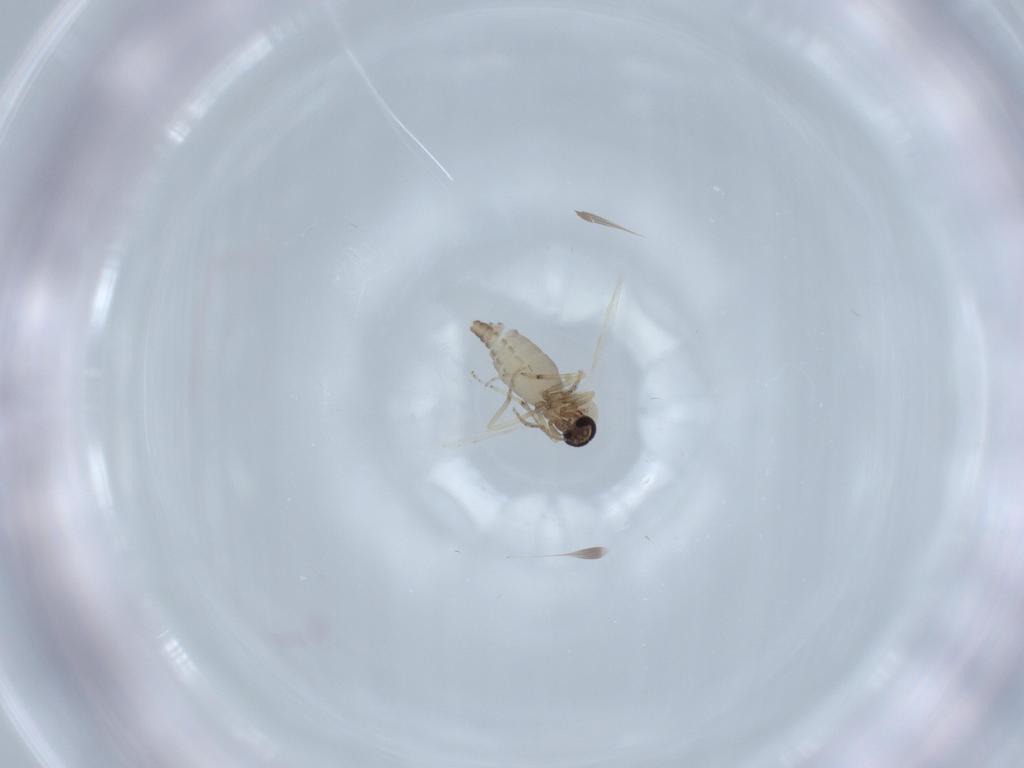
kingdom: Animalia
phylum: Arthropoda
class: Insecta
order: Diptera
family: Ceratopogonidae
